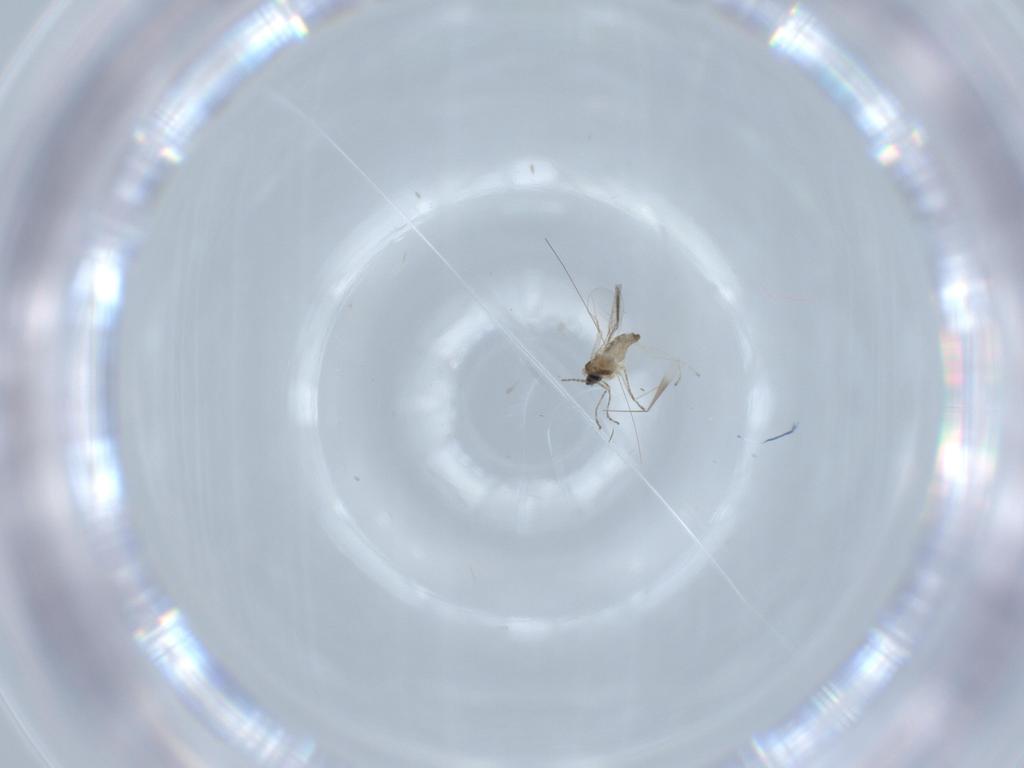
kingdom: Animalia
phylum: Arthropoda
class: Insecta
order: Diptera
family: Cecidomyiidae
